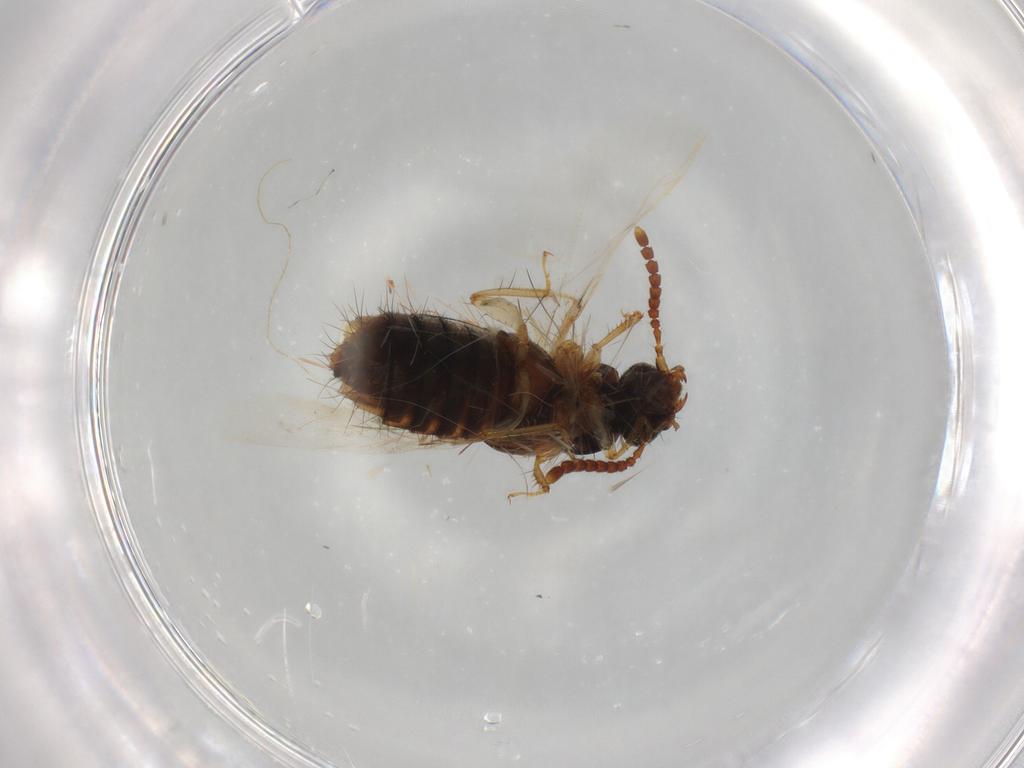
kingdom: Animalia
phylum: Arthropoda
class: Insecta
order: Coleoptera
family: Staphylinidae
